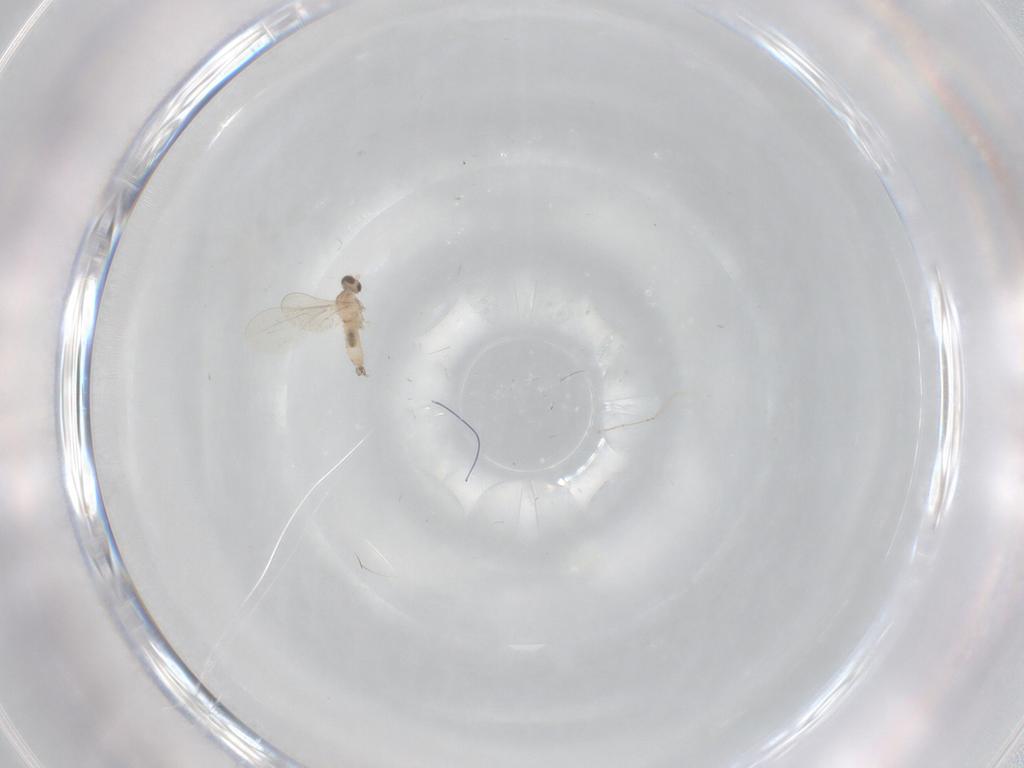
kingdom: Animalia
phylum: Arthropoda
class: Insecta
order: Diptera
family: Cecidomyiidae
